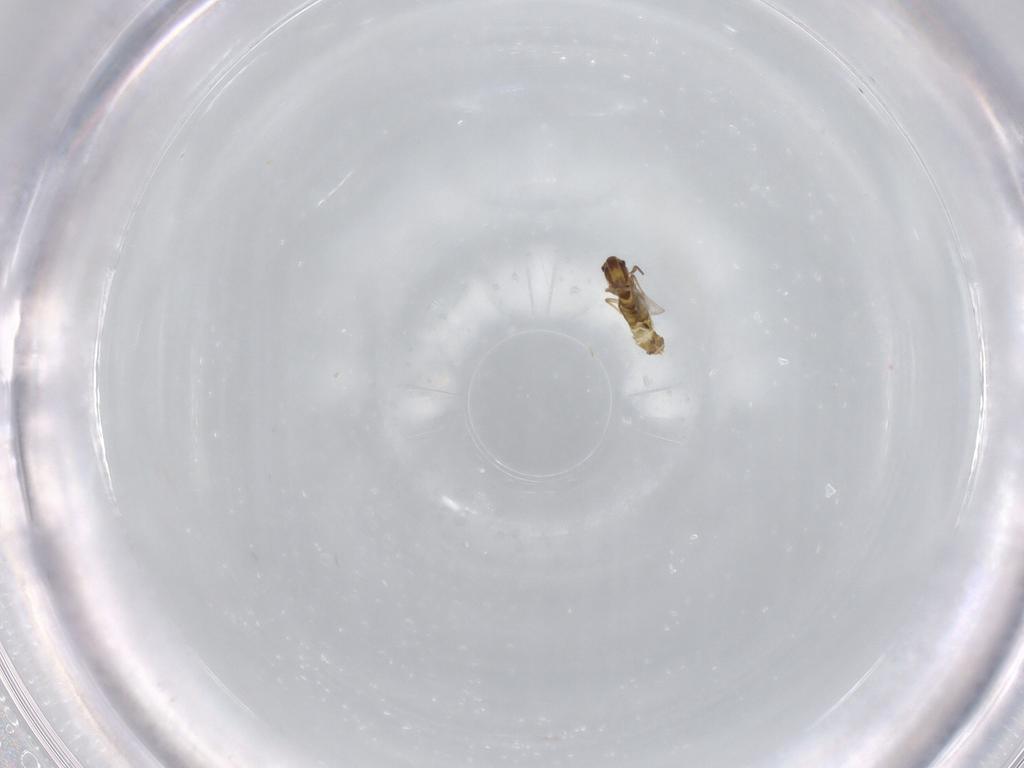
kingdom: Animalia
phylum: Arthropoda
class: Insecta
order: Diptera
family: Chironomidae
